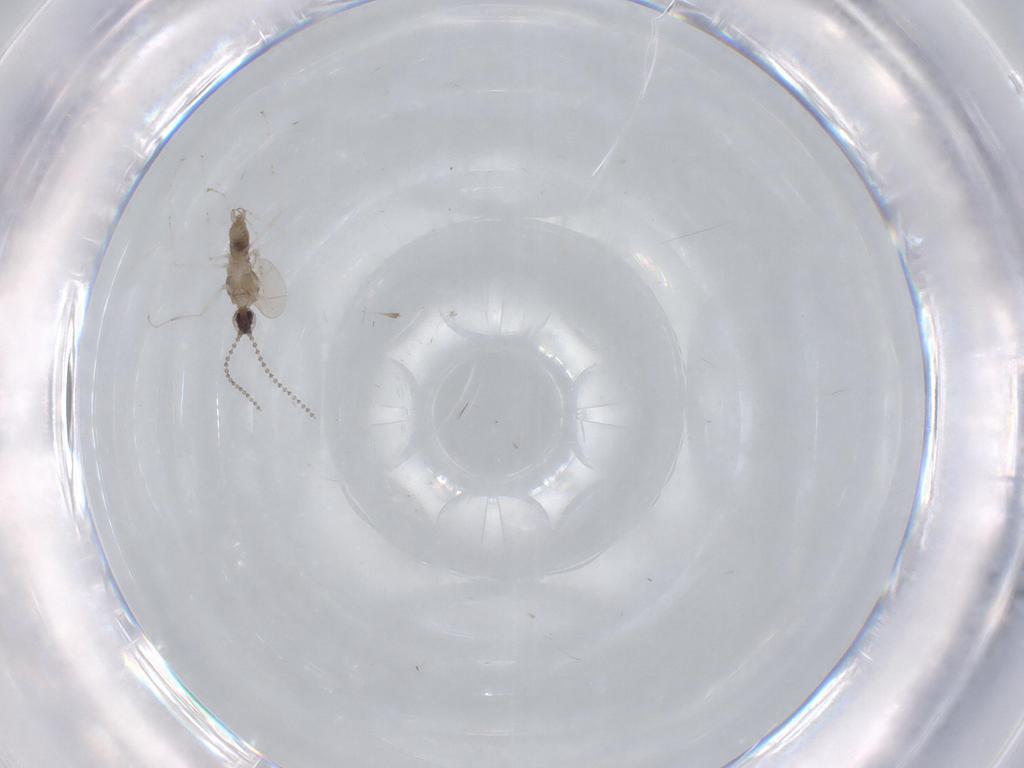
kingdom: Animalia
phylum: Arthropoda
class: Insecta
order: Diptera
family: Cecidomyiidae
